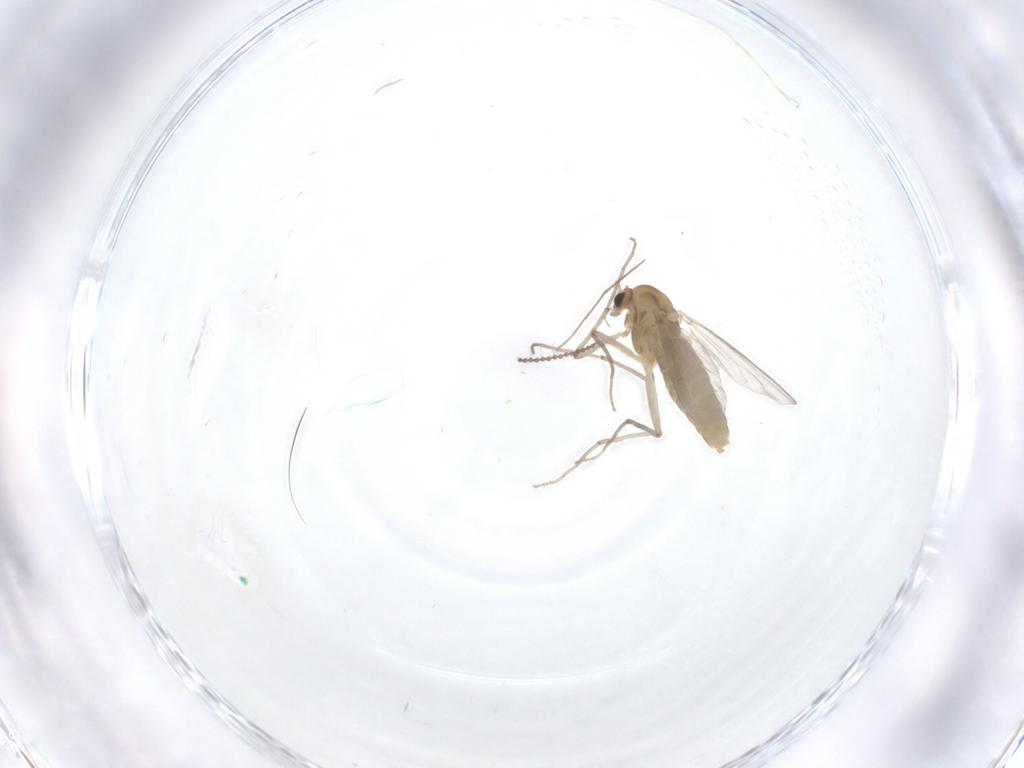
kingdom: Animalia
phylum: Arthropoda
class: Insecta
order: Diptera
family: Chironomidae
